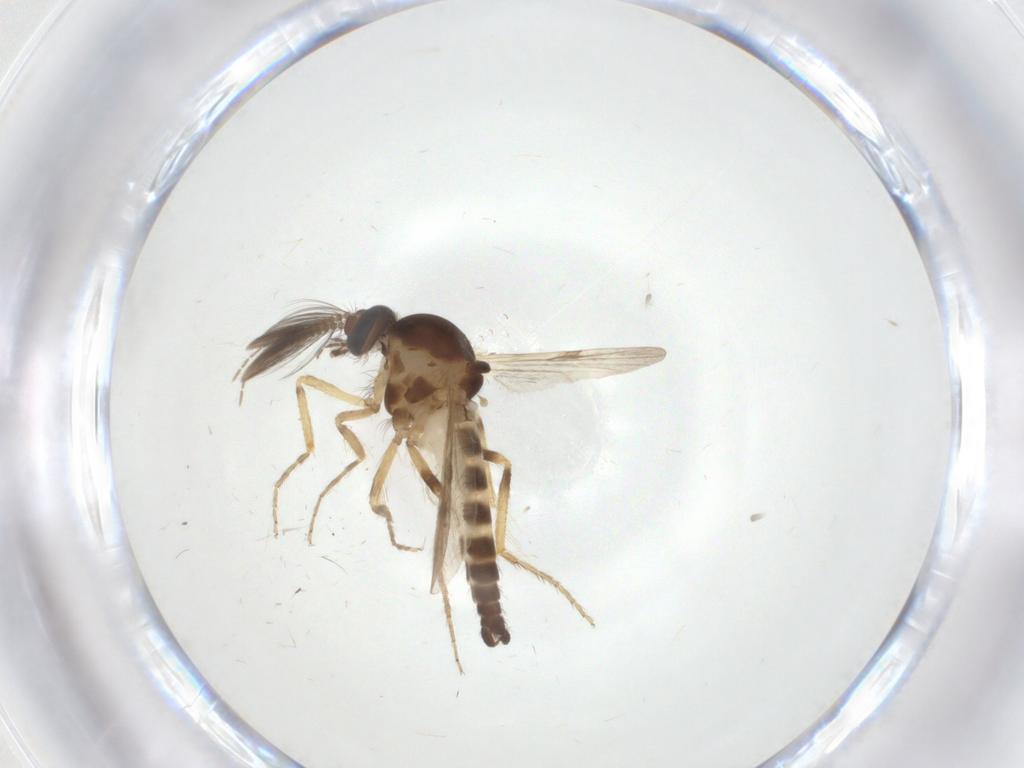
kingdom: Animalia
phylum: Arthropoda
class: Insecta
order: Diptera
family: Ceratopogonidae
